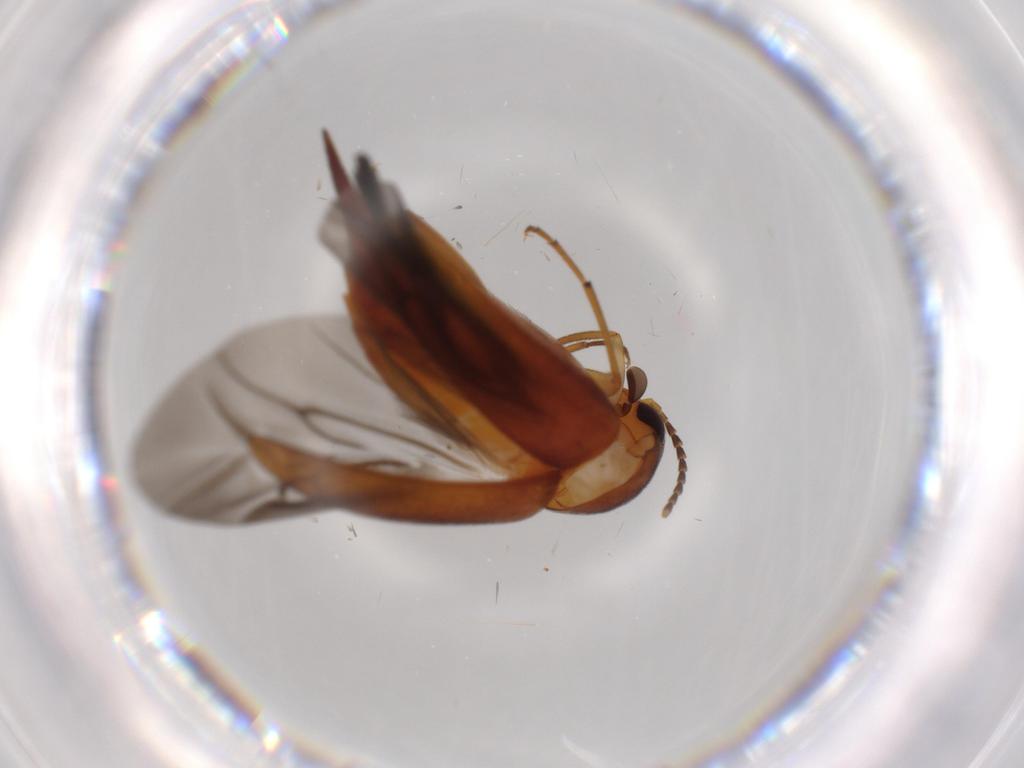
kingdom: Animalia
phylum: Arthropoda
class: Insecta
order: Coleoptera
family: Mordellidae
